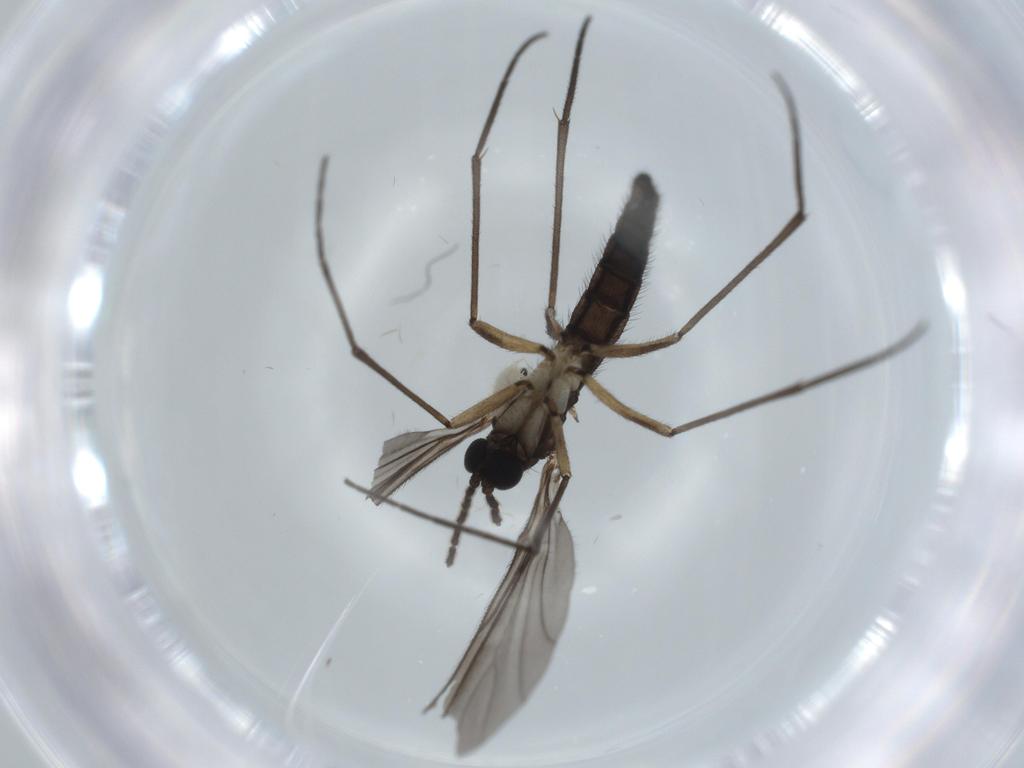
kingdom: Animalia
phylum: Arthropoda
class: Insecta
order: Diptera
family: Sciaridae
